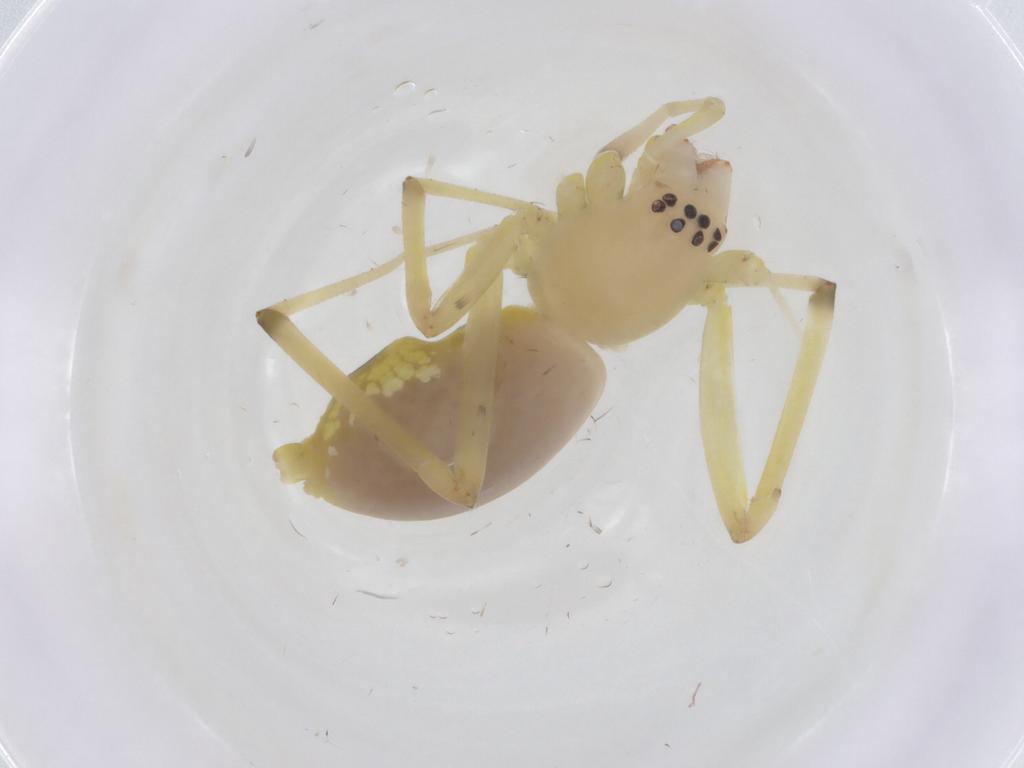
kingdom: Animalia
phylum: Arthropoda
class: Arachnida
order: Araneae
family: Cheiracanthiidae
